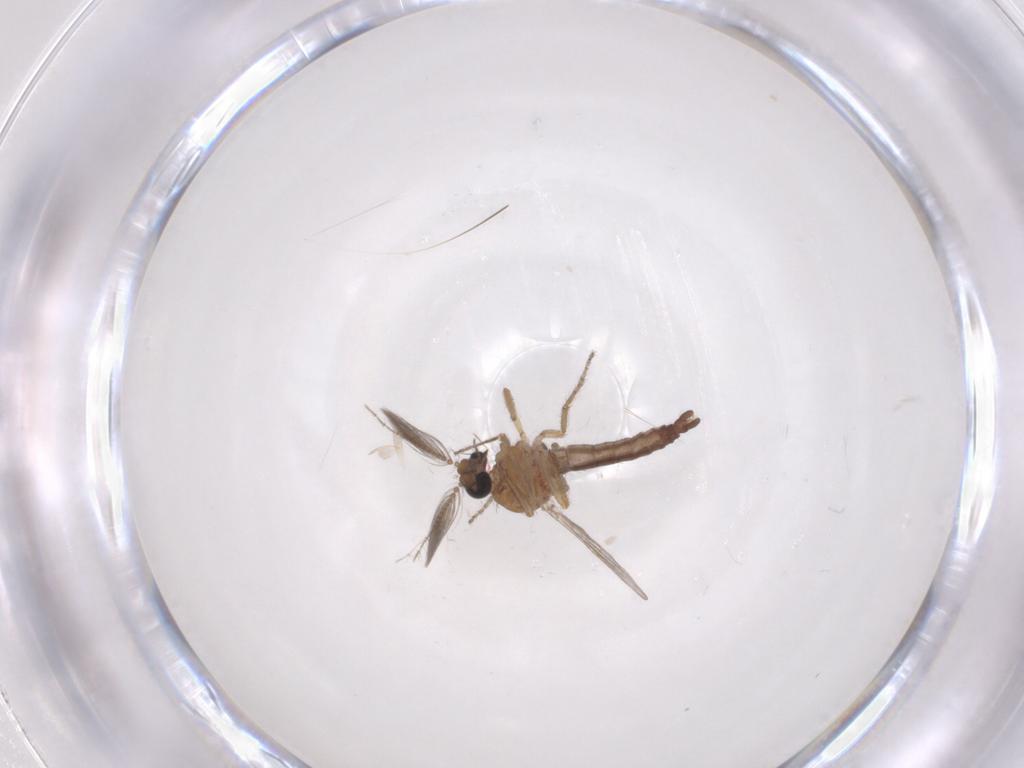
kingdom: Animalia
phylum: Arthropoda
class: Insecta
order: Diptera
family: Ceratopogonidae
